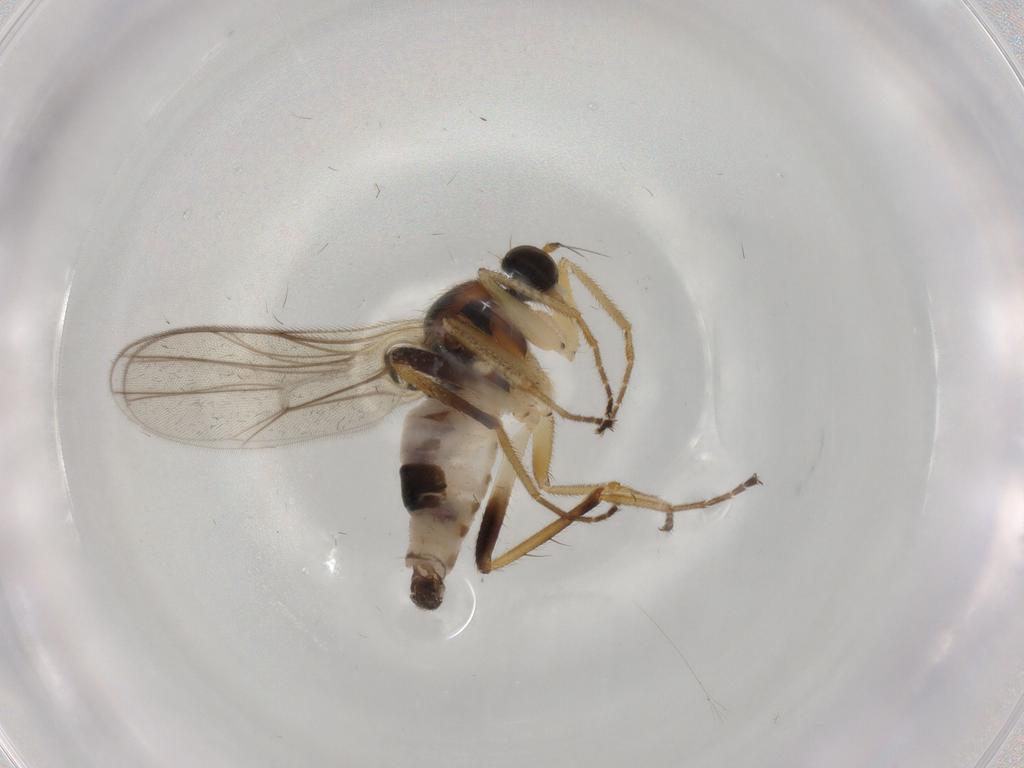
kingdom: Animalia
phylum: Arthropoda
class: Insecta
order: Diptera
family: Hybotidae
